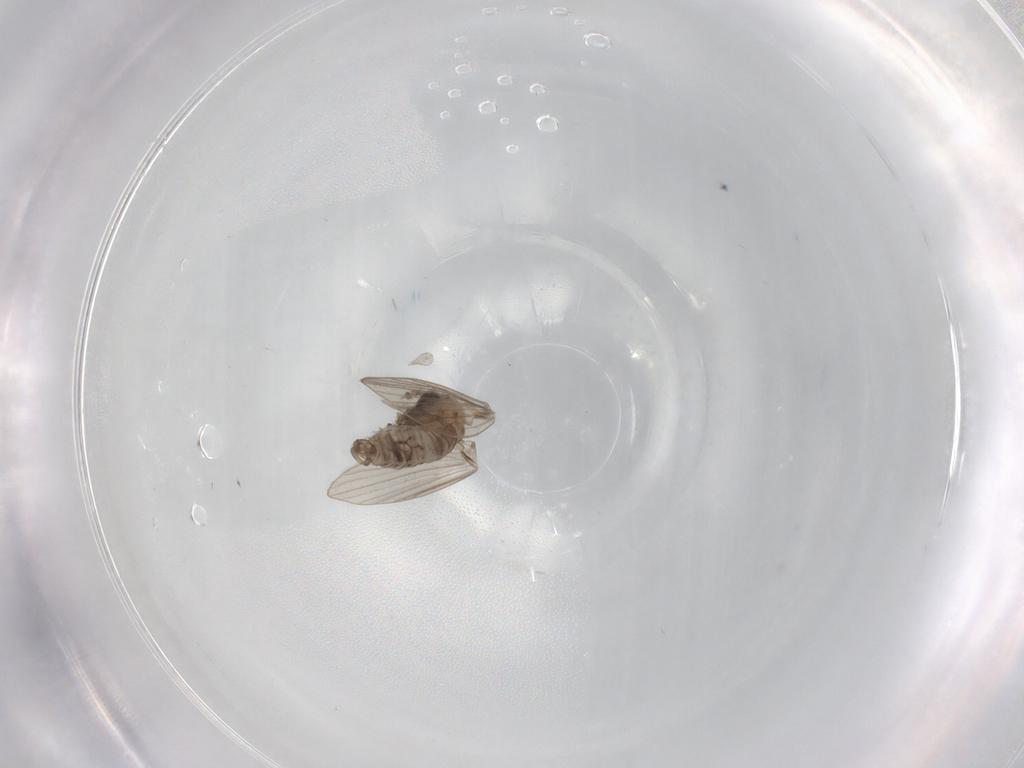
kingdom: Animalia
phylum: Arthropoda
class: Insecta
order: Diptera
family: Psychodidae
